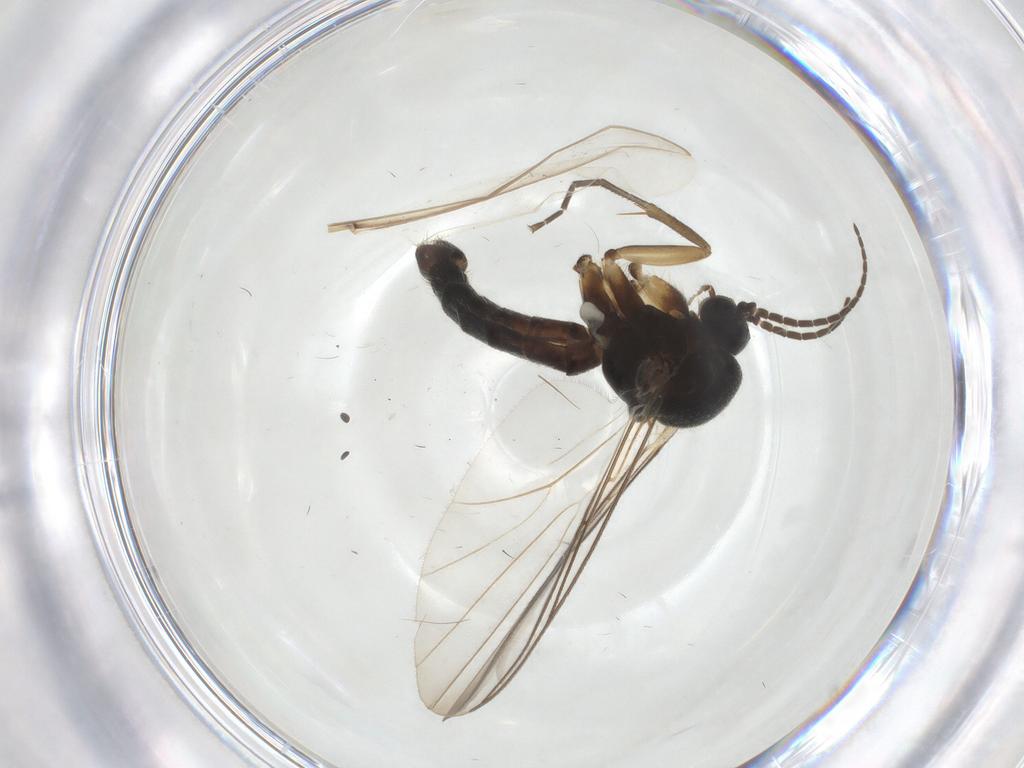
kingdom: Animalia
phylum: Arthropoda
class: Insecta
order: Diptera
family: Mycetophilidae
